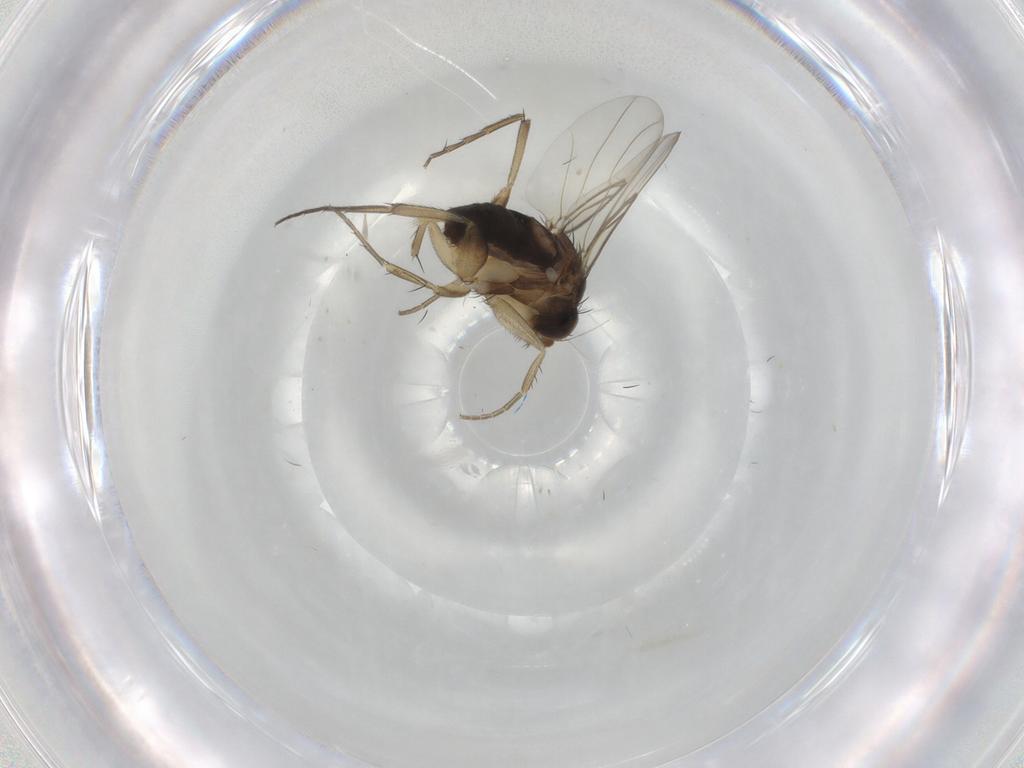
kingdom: Animalia
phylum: Arthropoda
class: Insecta
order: Diptera
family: Phoridae
